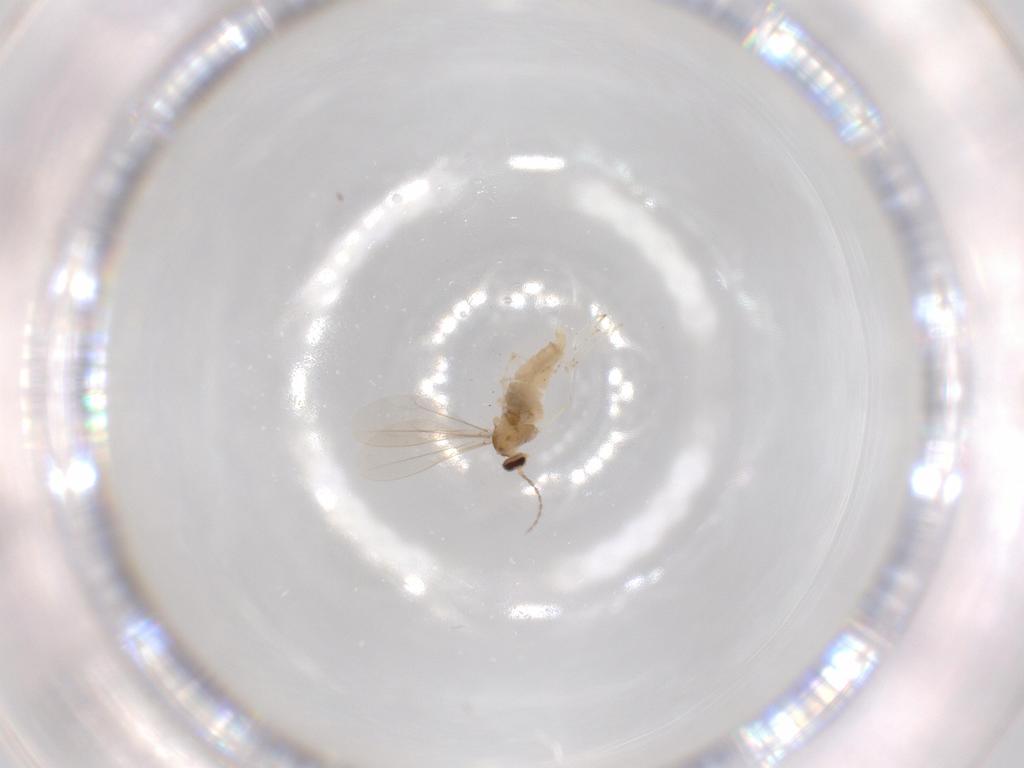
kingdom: Animalia
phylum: Arthropoda
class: Insecta
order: Diptera
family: Cecidomyiidae
